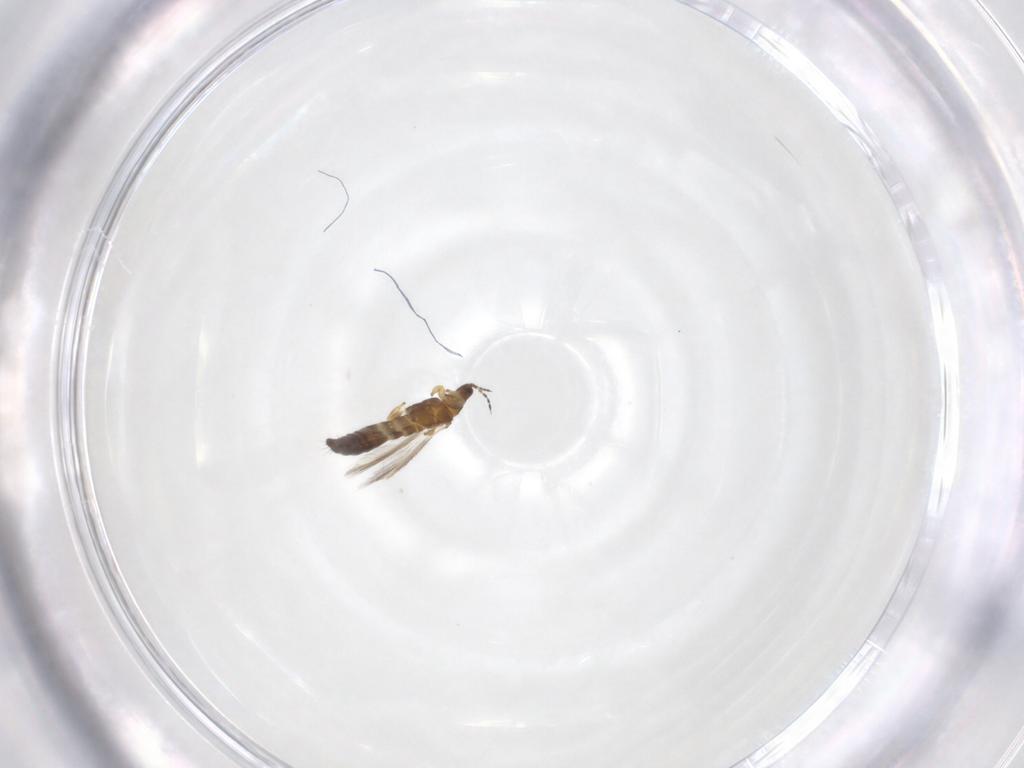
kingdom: Animalia
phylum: Arthropoda
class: Insecta
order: Thysanoptera
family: Thripidae
